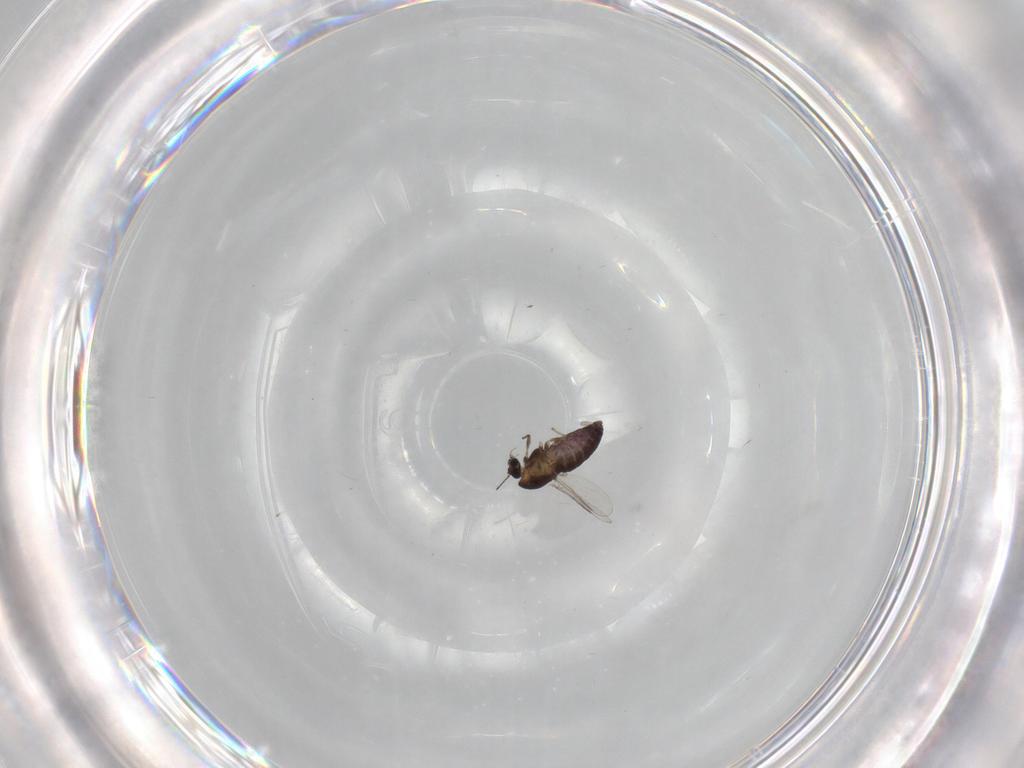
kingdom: Animalia
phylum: Arthropoda
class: Insecta
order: Diptera
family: Chironomidae
